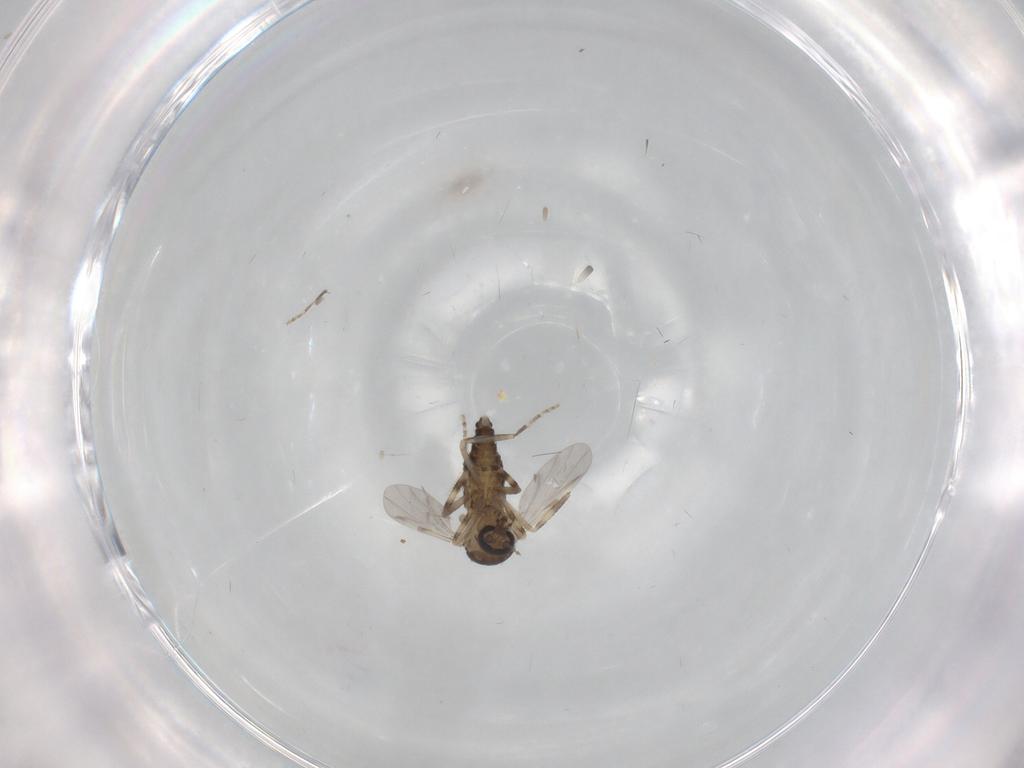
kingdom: Animalia
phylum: Arthropoda
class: Insecta
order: Diptera
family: Ceratopogonidae
